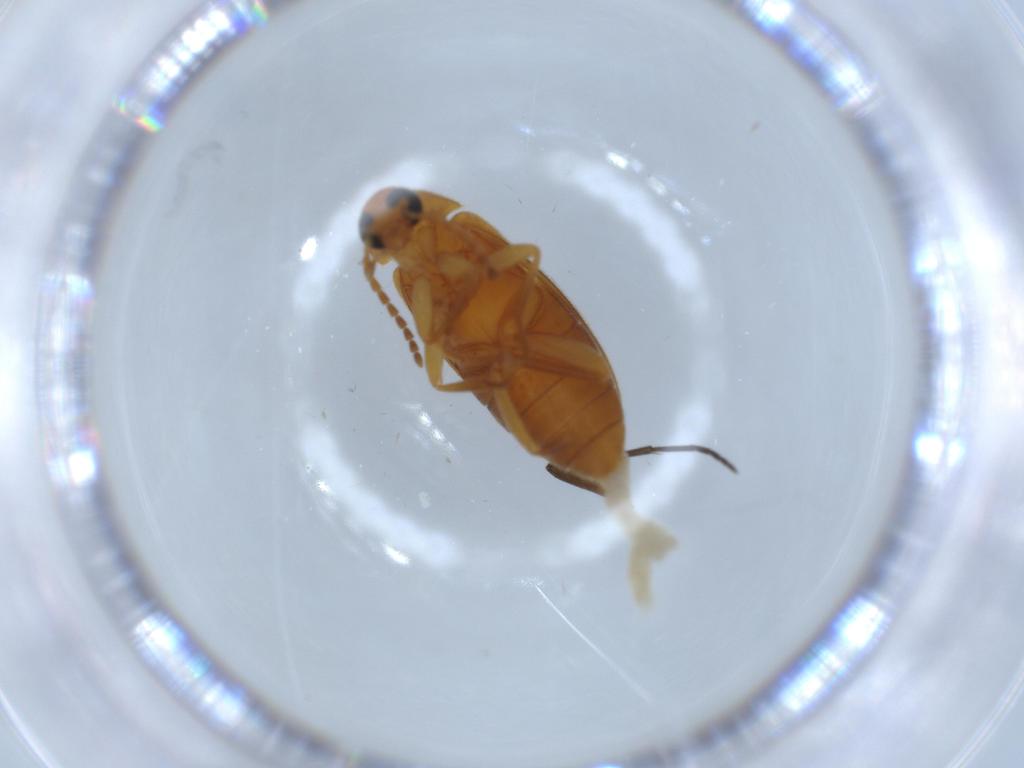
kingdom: Animalia
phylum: Arthropoda
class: Insecta
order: Coleoptera
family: Scraptiidae
